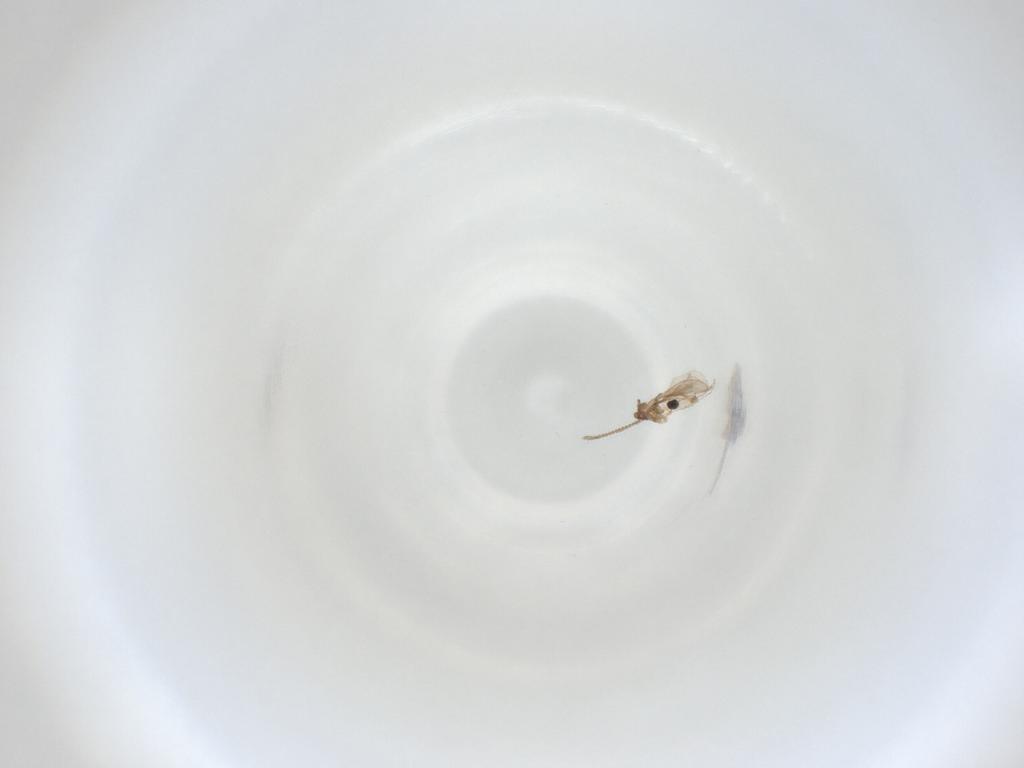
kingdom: Animalia
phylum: Arthropoda
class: Insecta
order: Diptera
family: Cecidomyiidae
